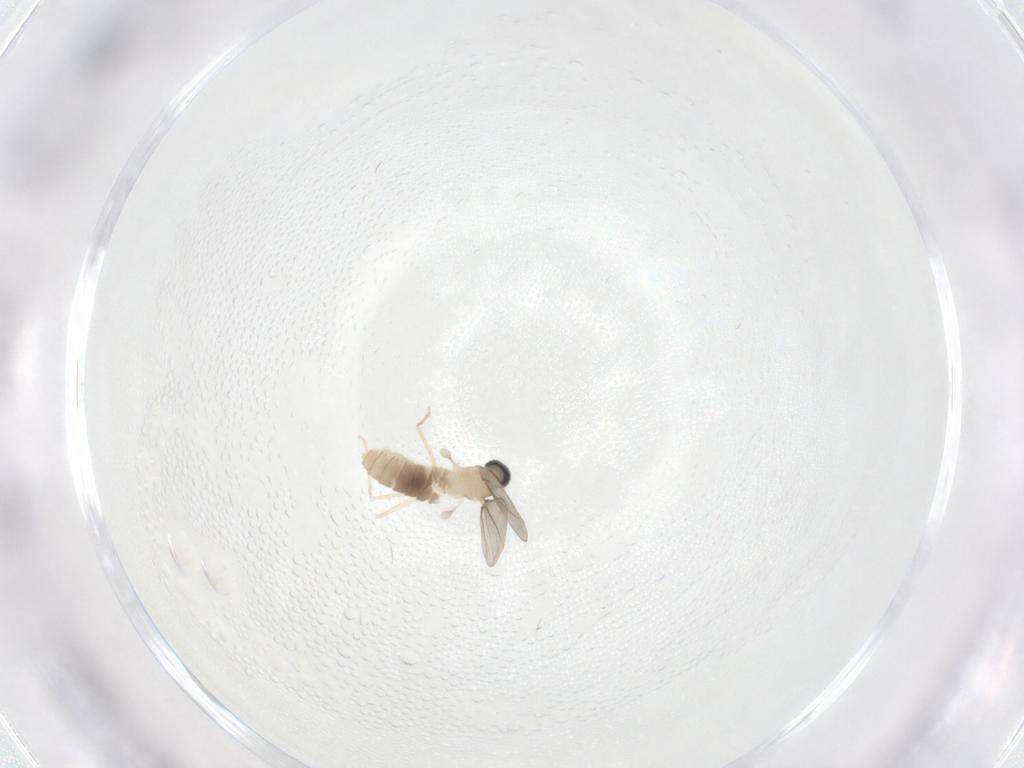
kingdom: Animalia
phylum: Arthropoda
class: Insecta
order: Diptera
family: Cecidomyiidae
